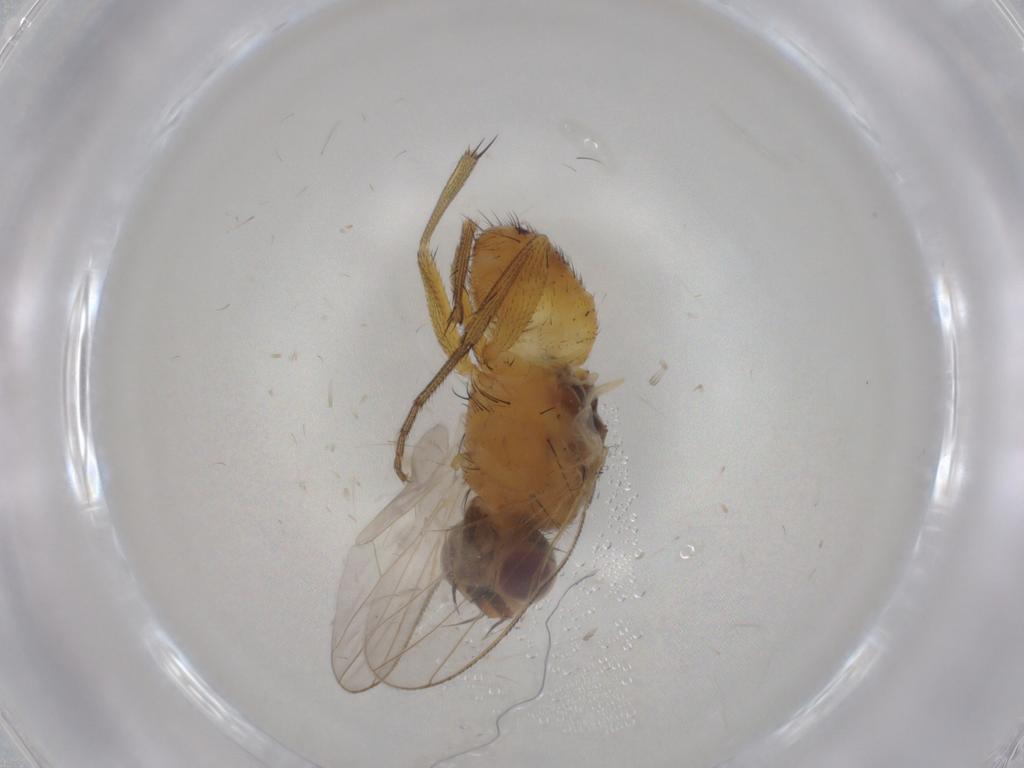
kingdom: Animalia
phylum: Arthropoda
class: Insecta
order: Diptera
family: Muscidae
